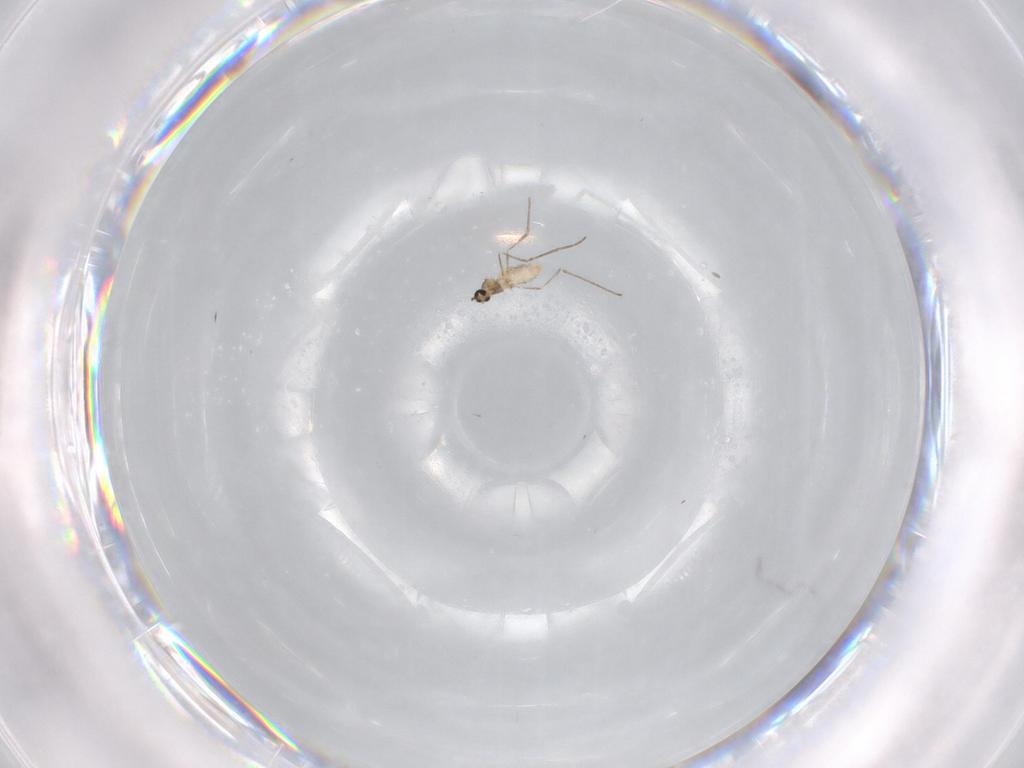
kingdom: Animalia
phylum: Arthropoda
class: Insecta
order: Diptera
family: Cecidomyiidae
